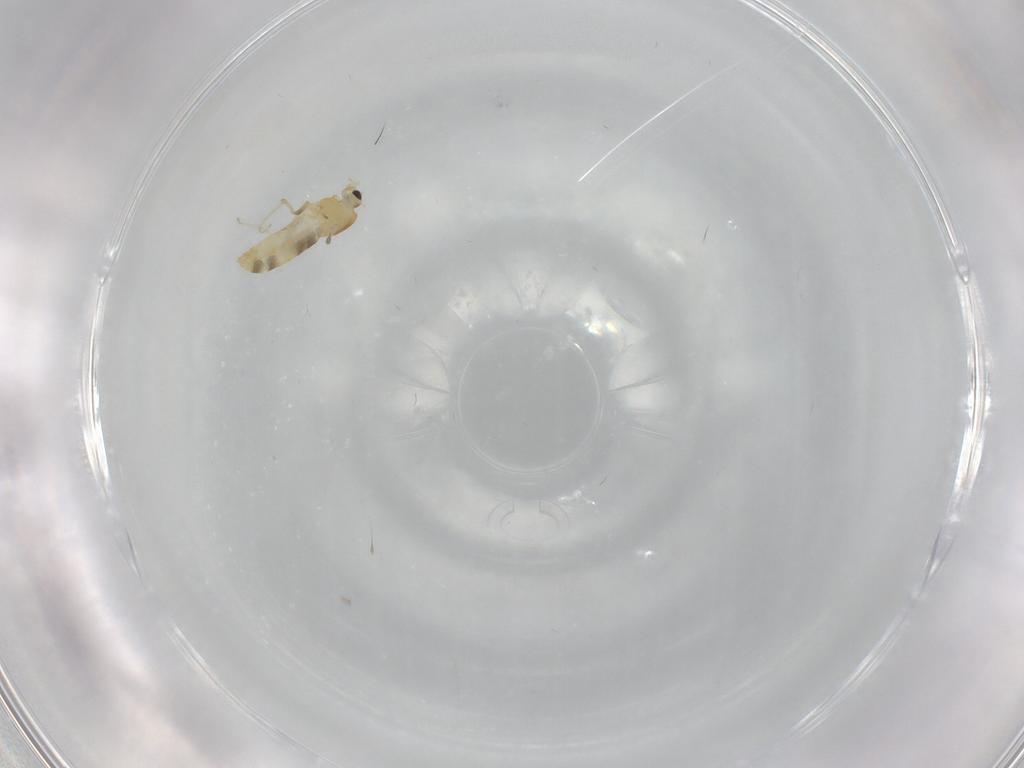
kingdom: Animalia
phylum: Arthropoda
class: Insecta
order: Diptera
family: Chironomidae
